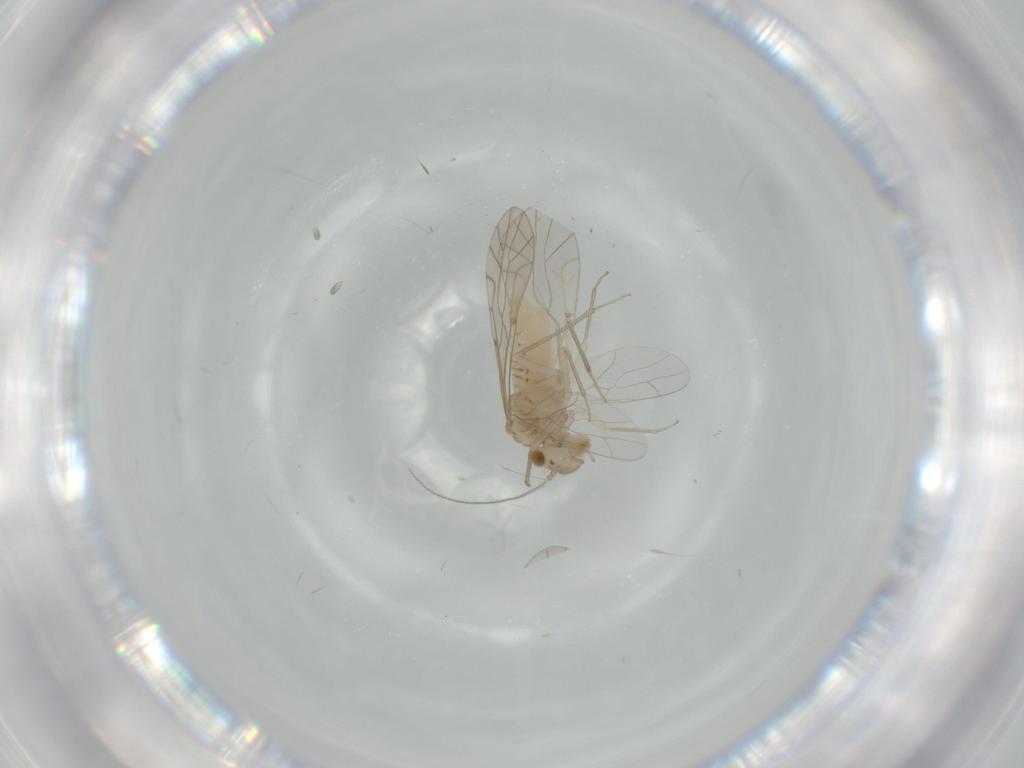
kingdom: Animalia
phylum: Arthropoda
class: Insecta
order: Psocodea
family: Lachesillidae
